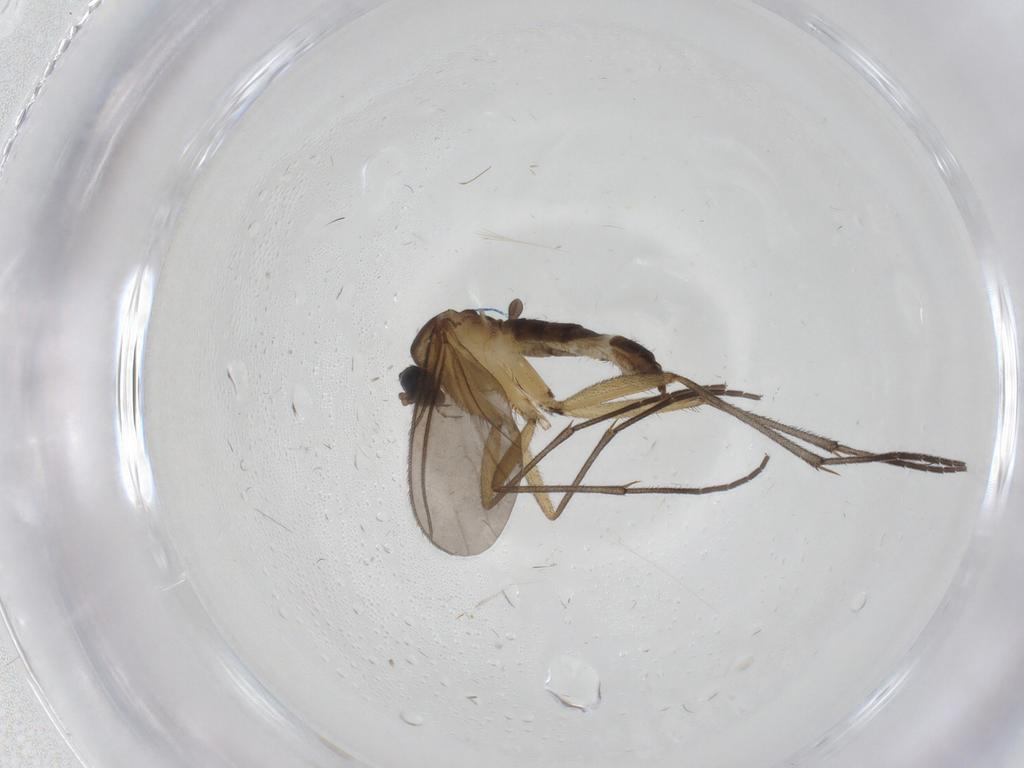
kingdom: Animalia
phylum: Arthropoda
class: Insecta
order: Diptera
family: Sciaridae
